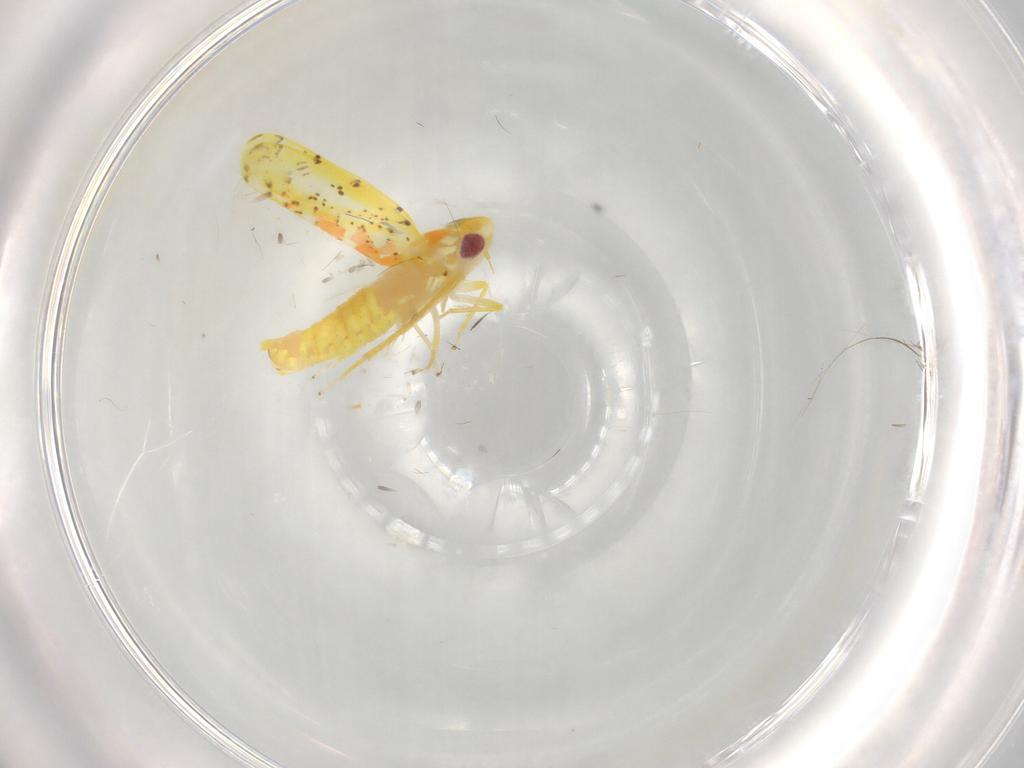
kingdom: Animalia
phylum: Arthropoda
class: Insecta
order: Hemiptera
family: Cicadellidae
